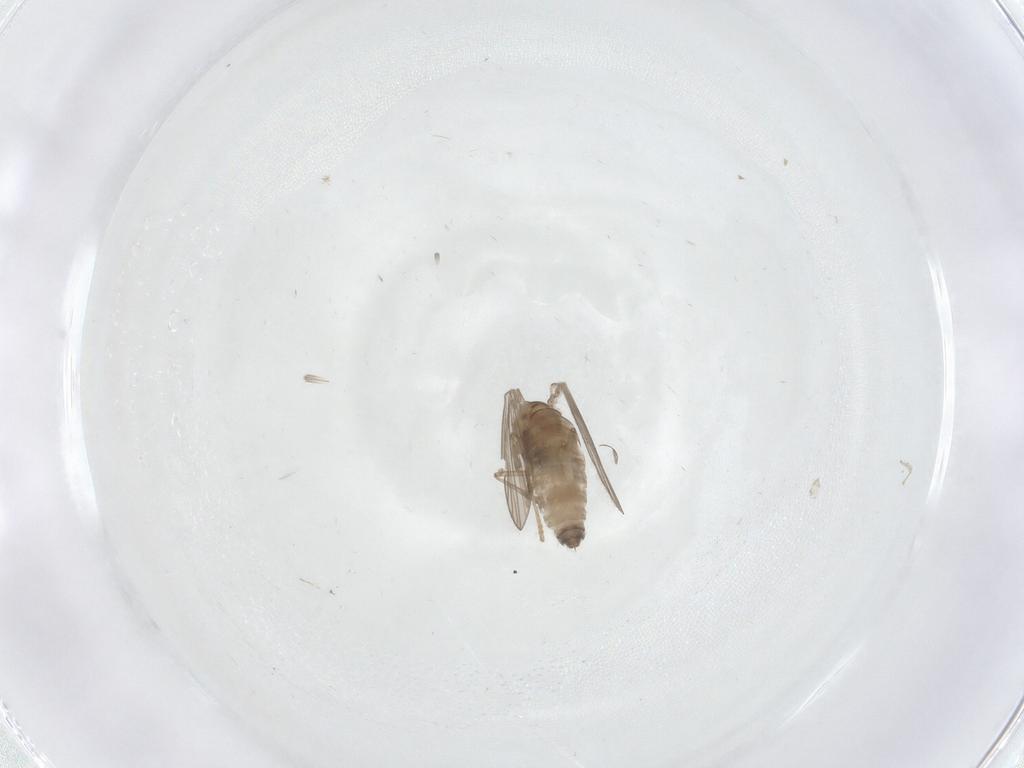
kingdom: Animalia
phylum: Arthropoda
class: Insecta
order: Diptera
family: Psychodidae
